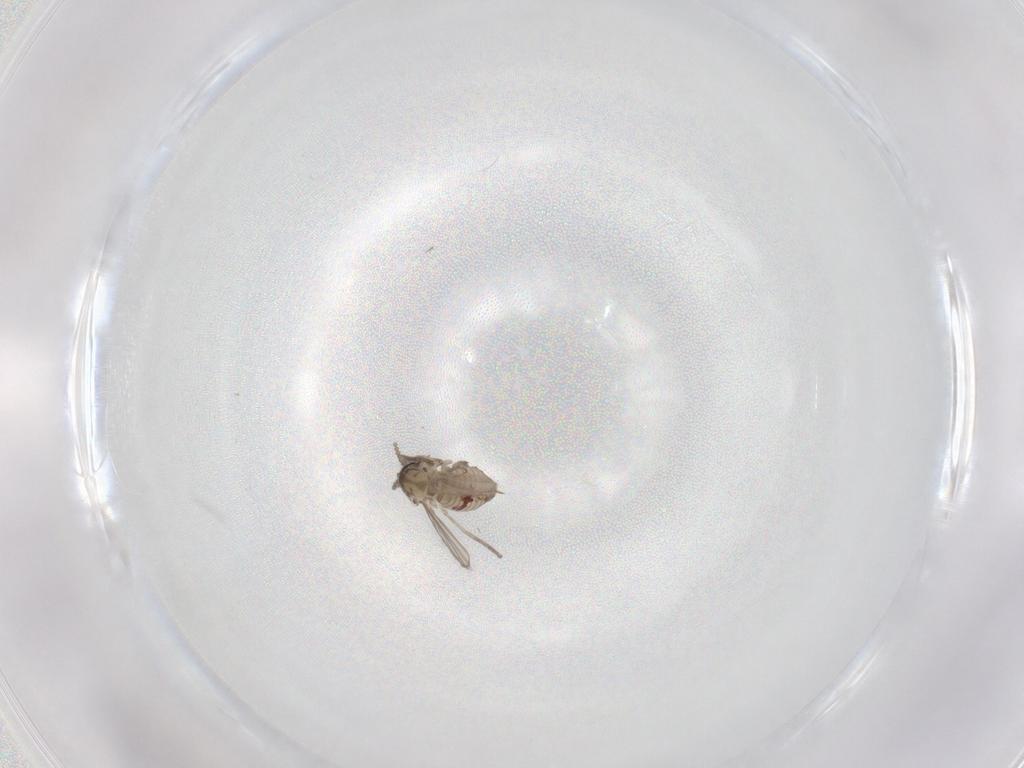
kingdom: Animalia
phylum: Arthropoda
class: Insecta
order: Diptera
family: Psychodidae
